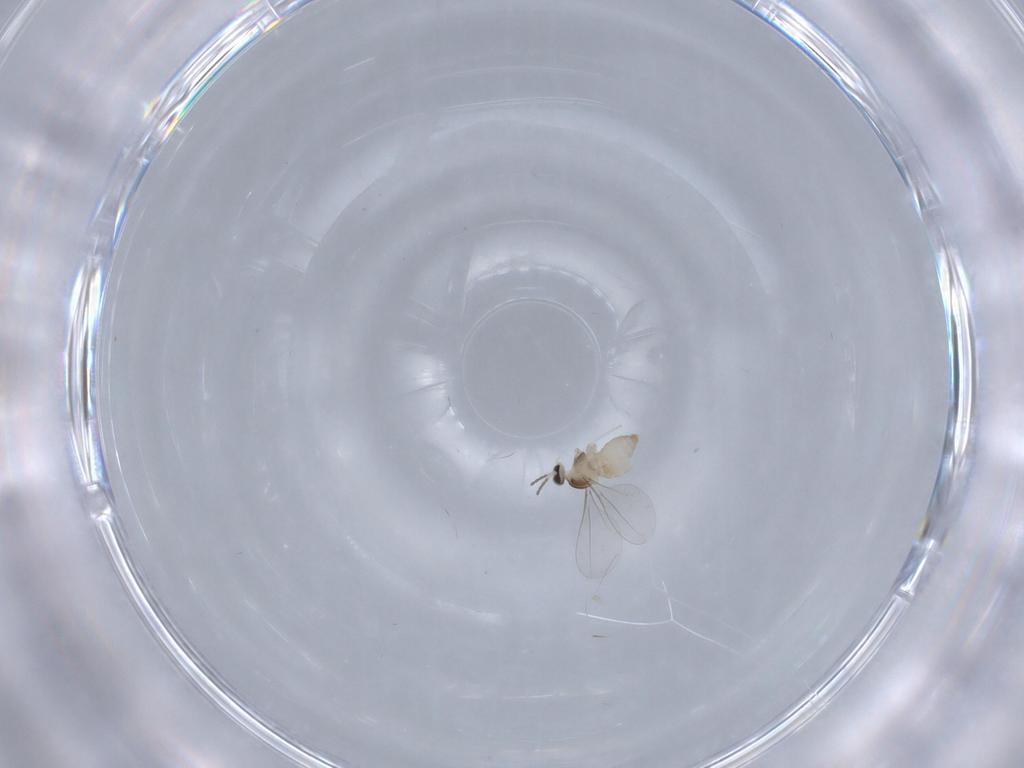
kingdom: Animalia
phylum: Arthropoda
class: Insecta
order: Diptera
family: Cecidomyiidae
